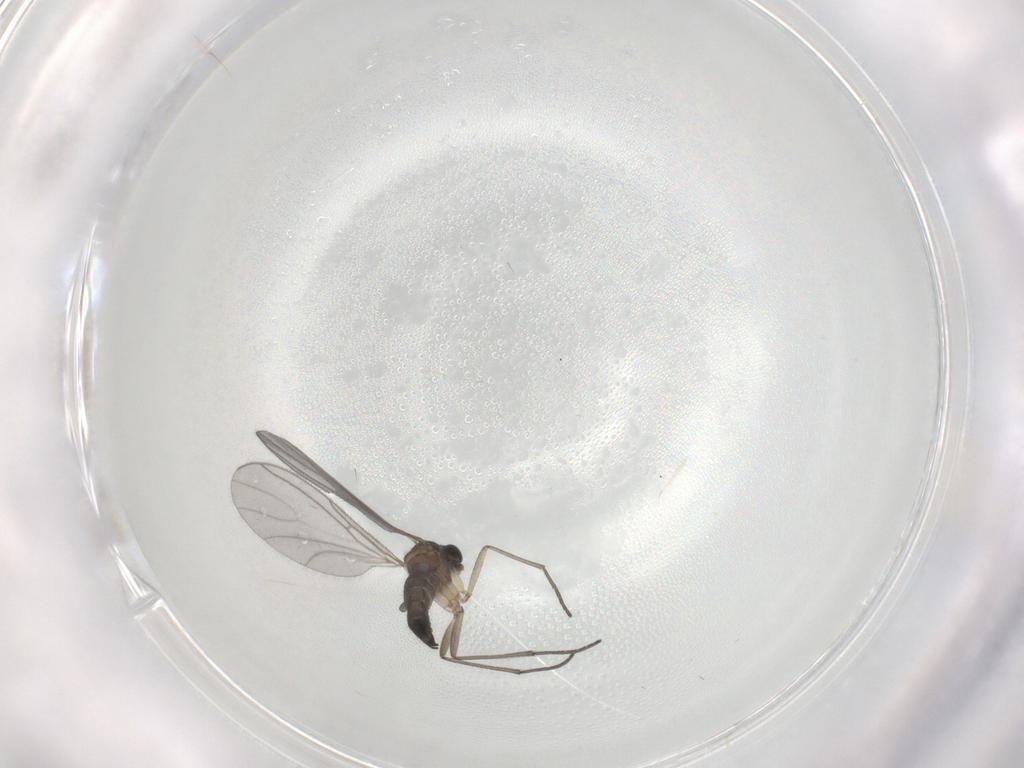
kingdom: Animalia
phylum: Arthropoda
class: Insecta
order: Diptera
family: Sciaridae
